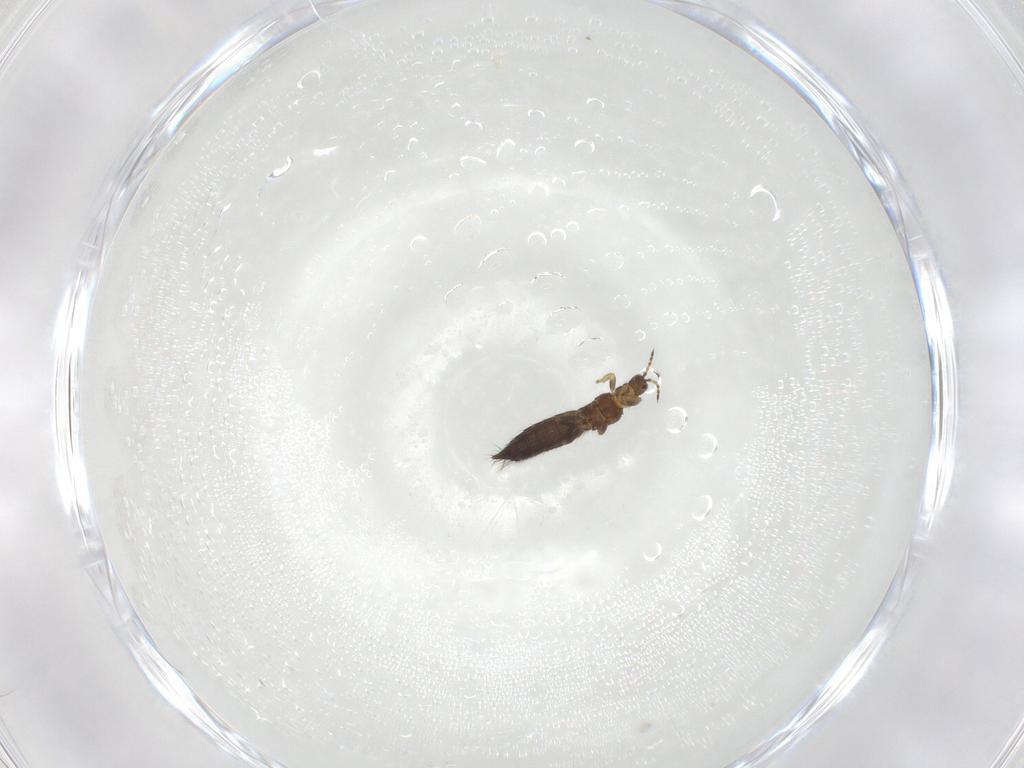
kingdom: Animalia
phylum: Arthropoda
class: Insecta
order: Thysanoptera
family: Thripidae
